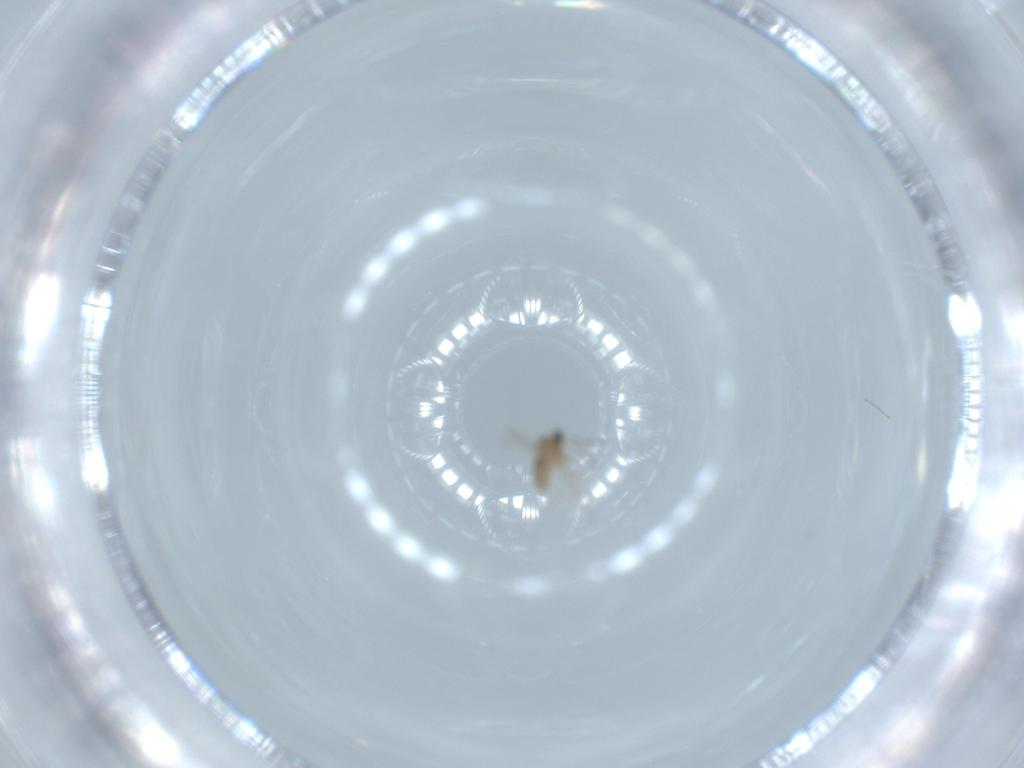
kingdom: Animalia
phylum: Arthropoda
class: Insecta
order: Diptera
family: Cecidomyiidae
